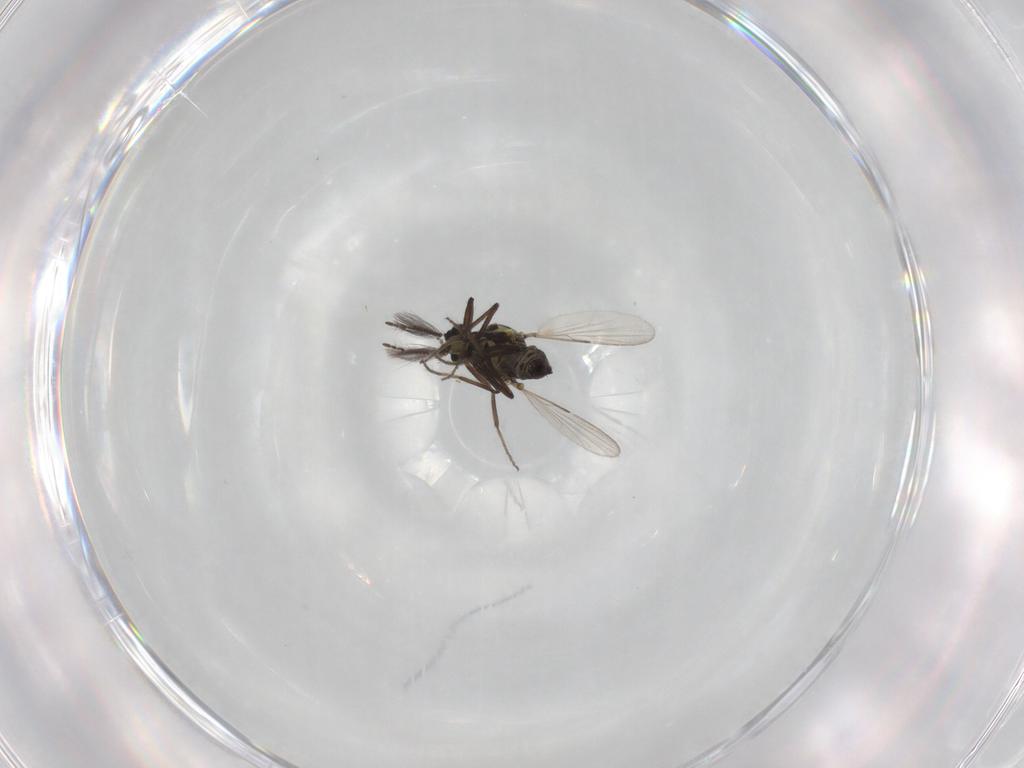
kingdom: Animalia
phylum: Arthropoda
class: Insecta
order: Diptera
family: Ceratopogonidae
